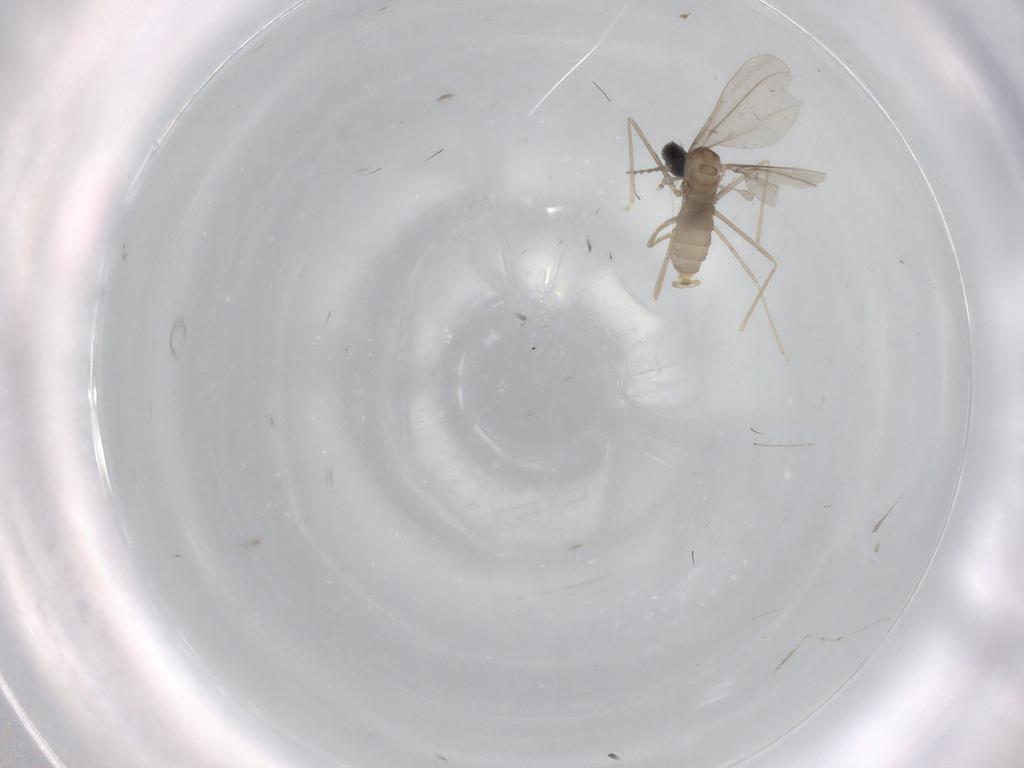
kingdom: Animalia
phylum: Arthropoda
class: Insecta
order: Diptera
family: Cecidomyiidae
